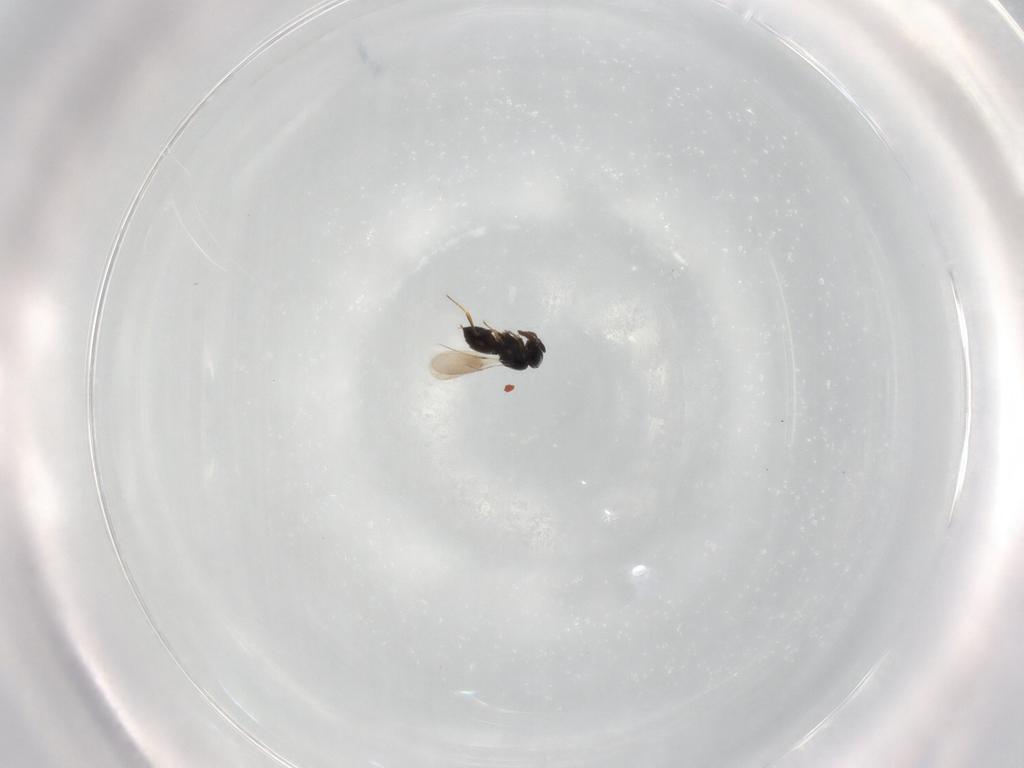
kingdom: Animalia
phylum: Arthropoda
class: Insecta
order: Hymenoptera
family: Scelionidae
